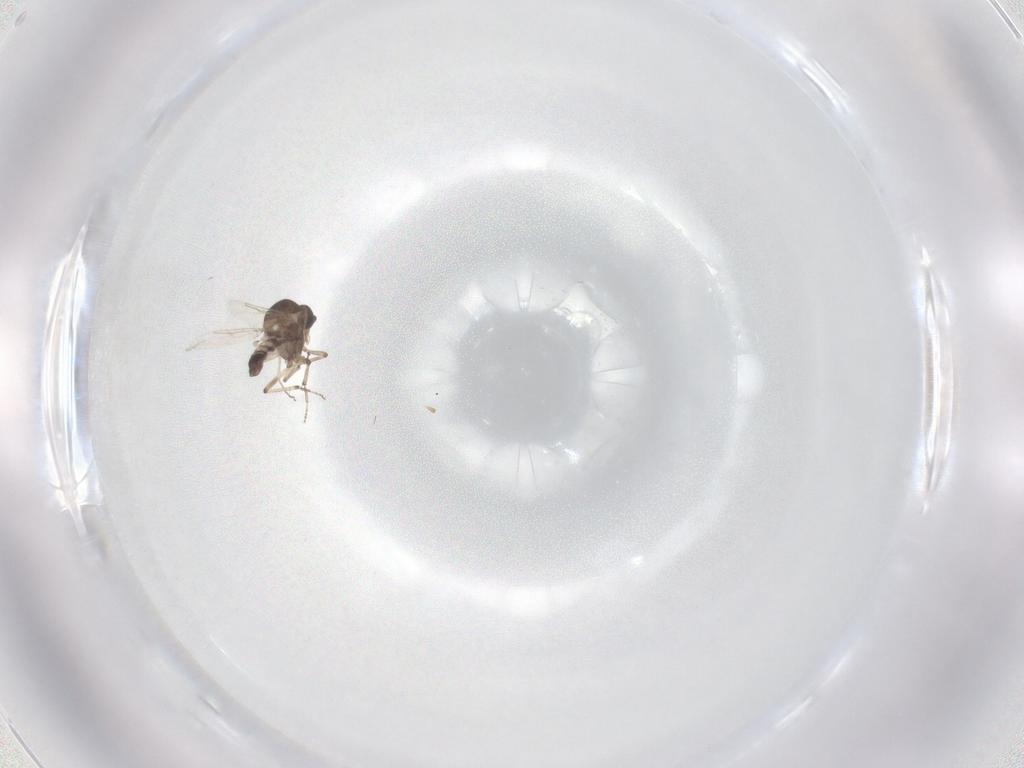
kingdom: Animalia
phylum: Arthropoda
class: Insecta
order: Diptera
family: Ceratopogonidae
